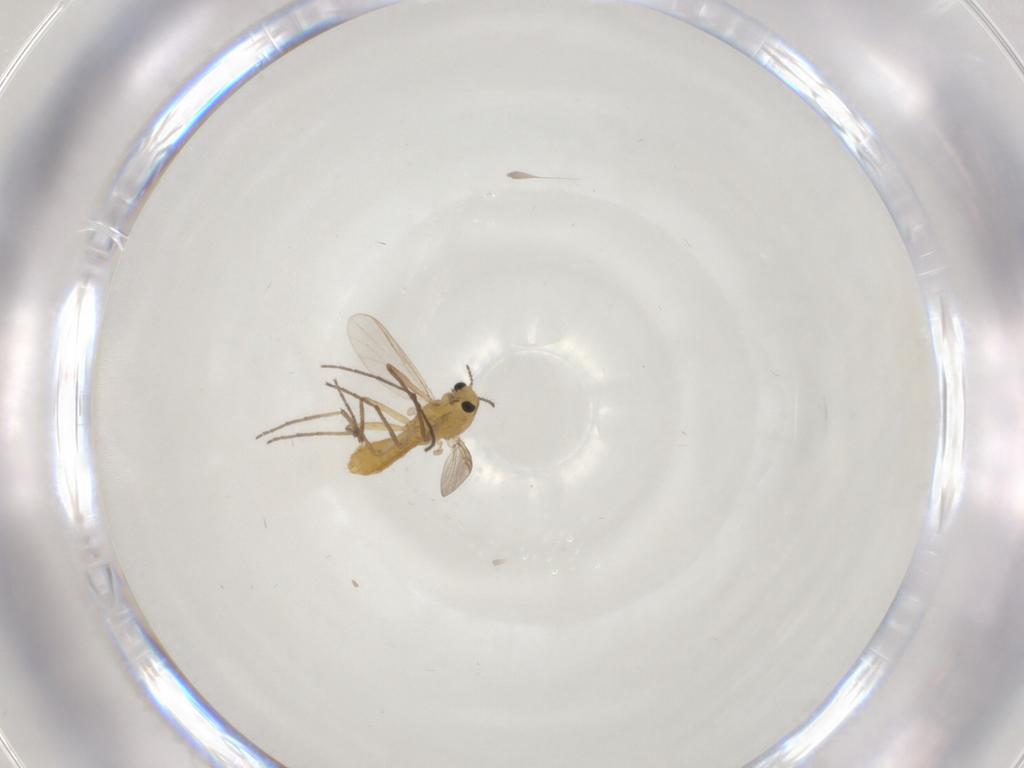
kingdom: Animalia
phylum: Arthropoda
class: Insecta
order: Diptera
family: Chironomidae
